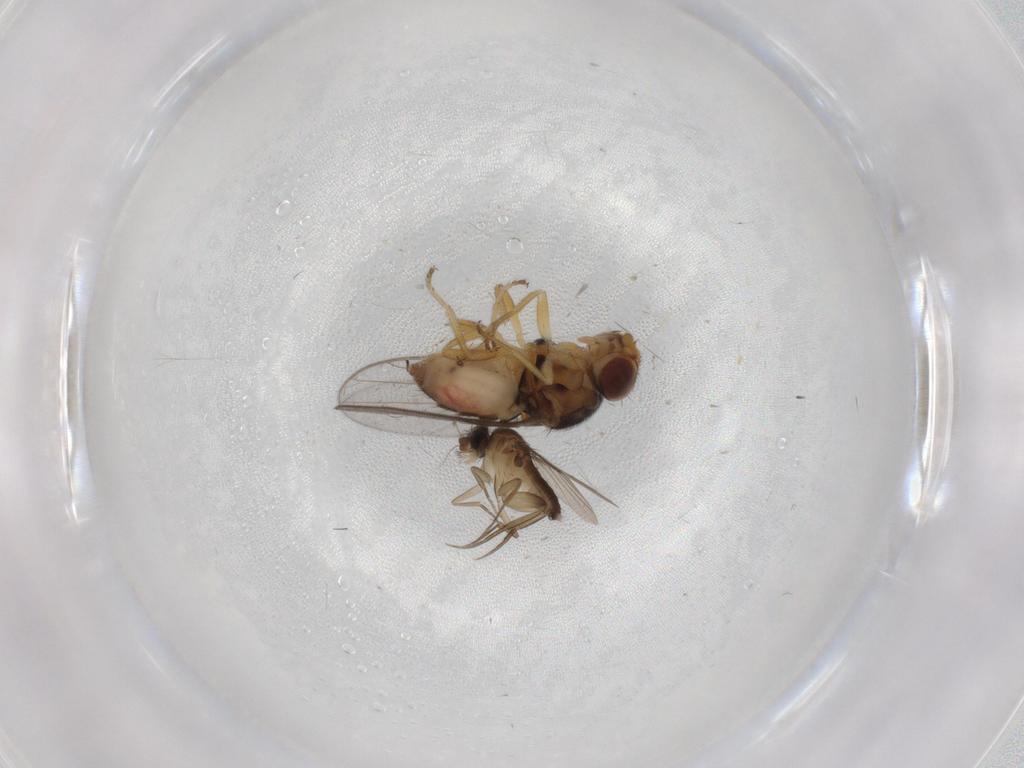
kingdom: Animalia
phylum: Arthropoda
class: Insecta
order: Diptera
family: Chloropidae
